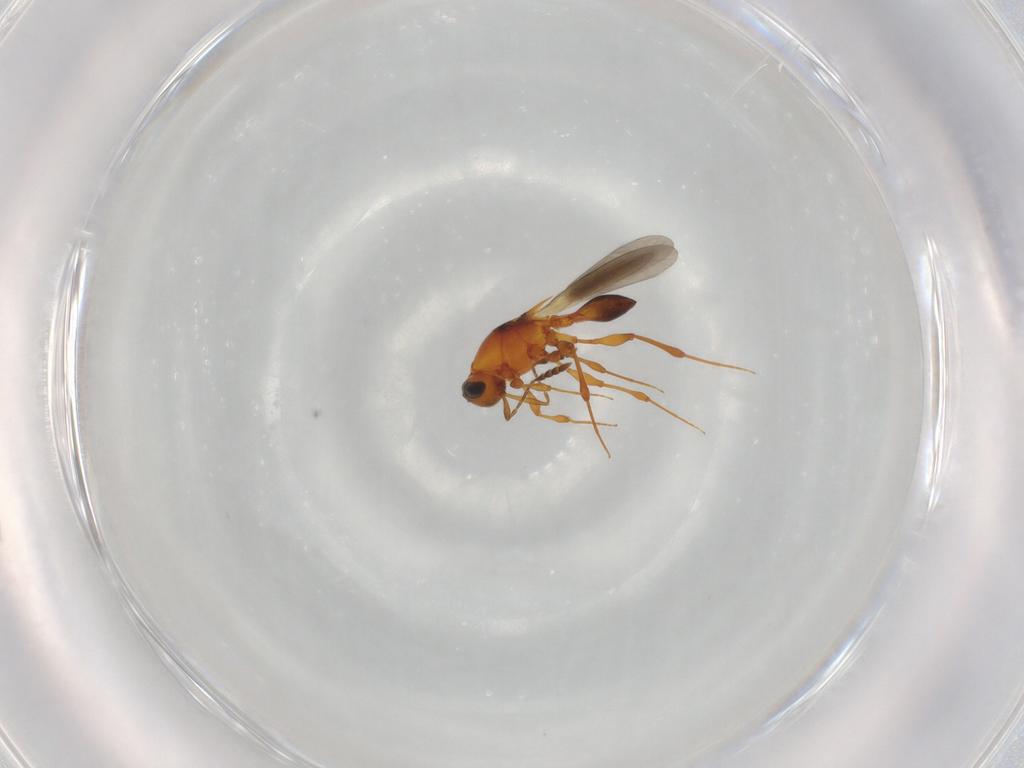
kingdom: Animalia
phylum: Arthropoda
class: Insecta
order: Hymenoptera
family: Platygastridae
